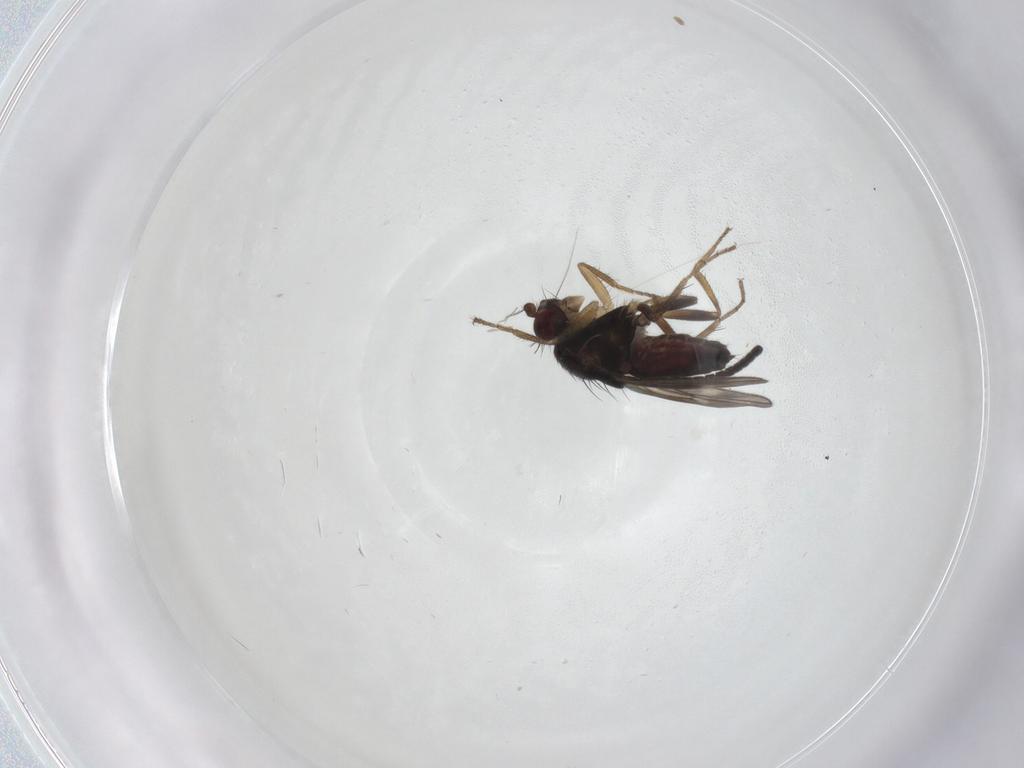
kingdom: Animalia
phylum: Arthropoda
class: Insecta
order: Diptera
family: Sphaeroceridae
